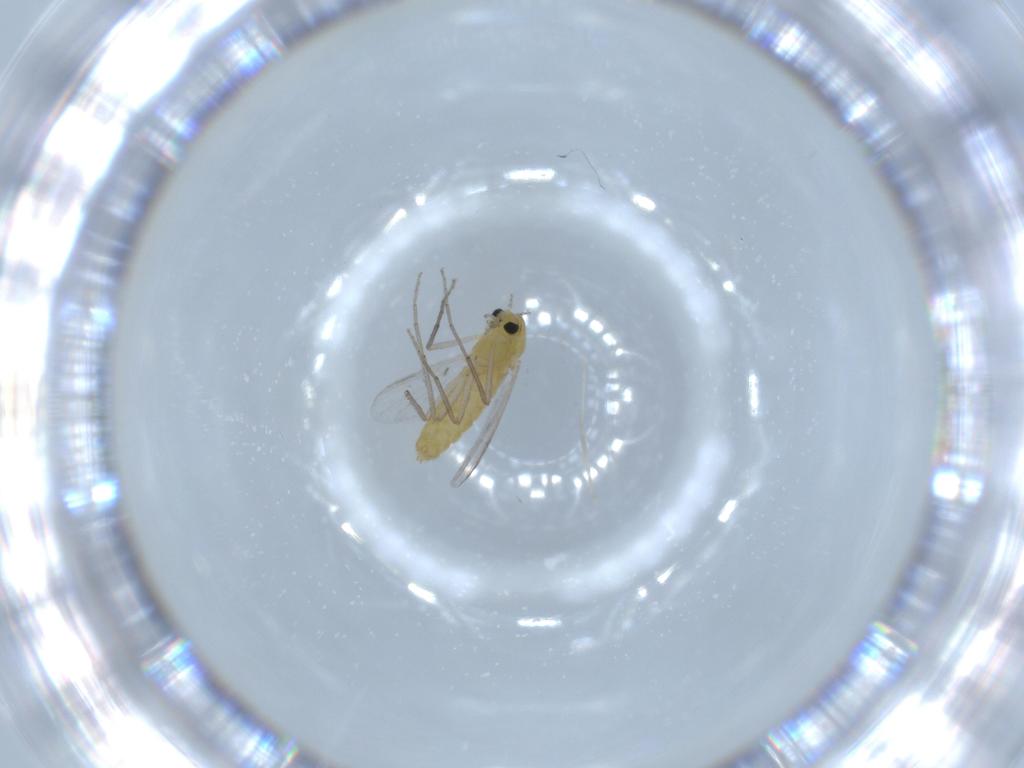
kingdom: Animalia
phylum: Arthropoda
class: Insecta
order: Diptera
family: Chironomidae
